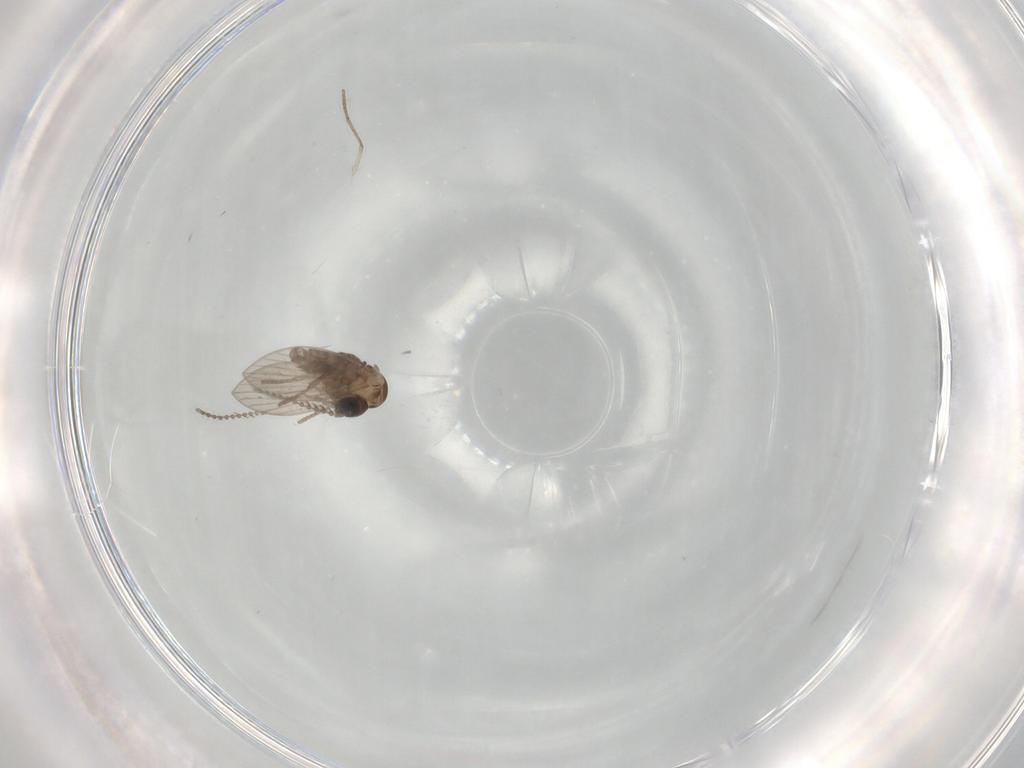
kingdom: Animalia
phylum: Arthropoda
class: Insecta
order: Diptera
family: Psychodidae
